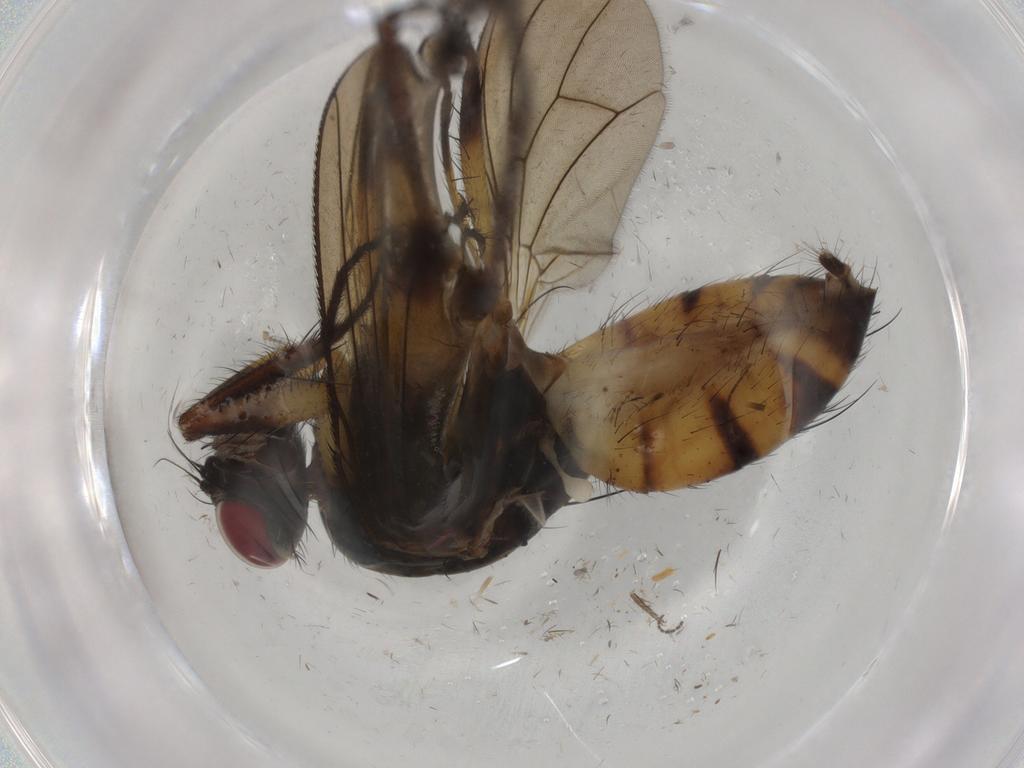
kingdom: Animalia
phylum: Arthropoda
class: Insecta
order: Diptera
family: Muscidae
